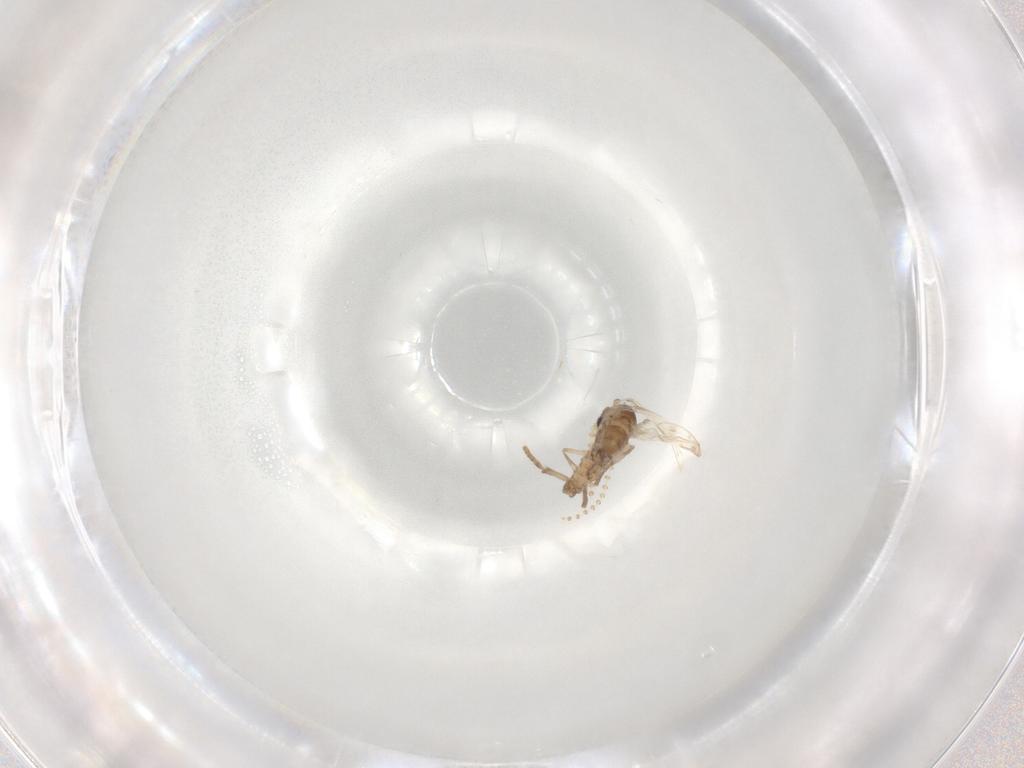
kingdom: Animalia
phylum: Arthropoda
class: Insecta
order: Diptera
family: Psychodidae
